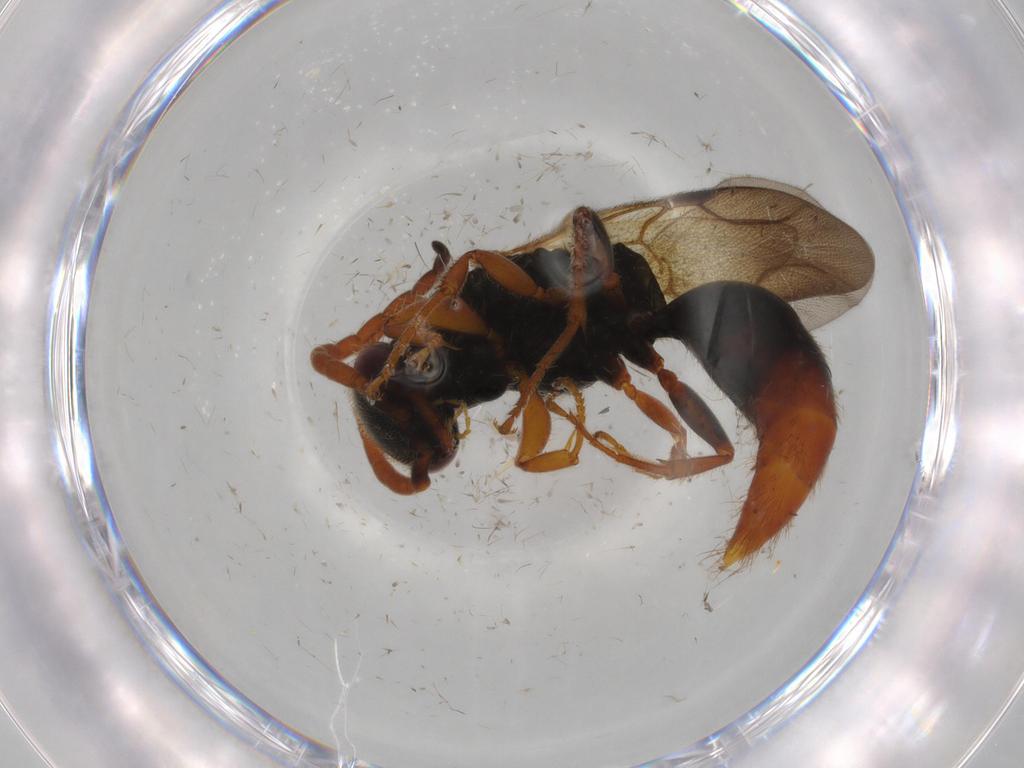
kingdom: Animalia
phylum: Arthropoda
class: Insecta
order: Hymenoptera
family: Bethylidae
